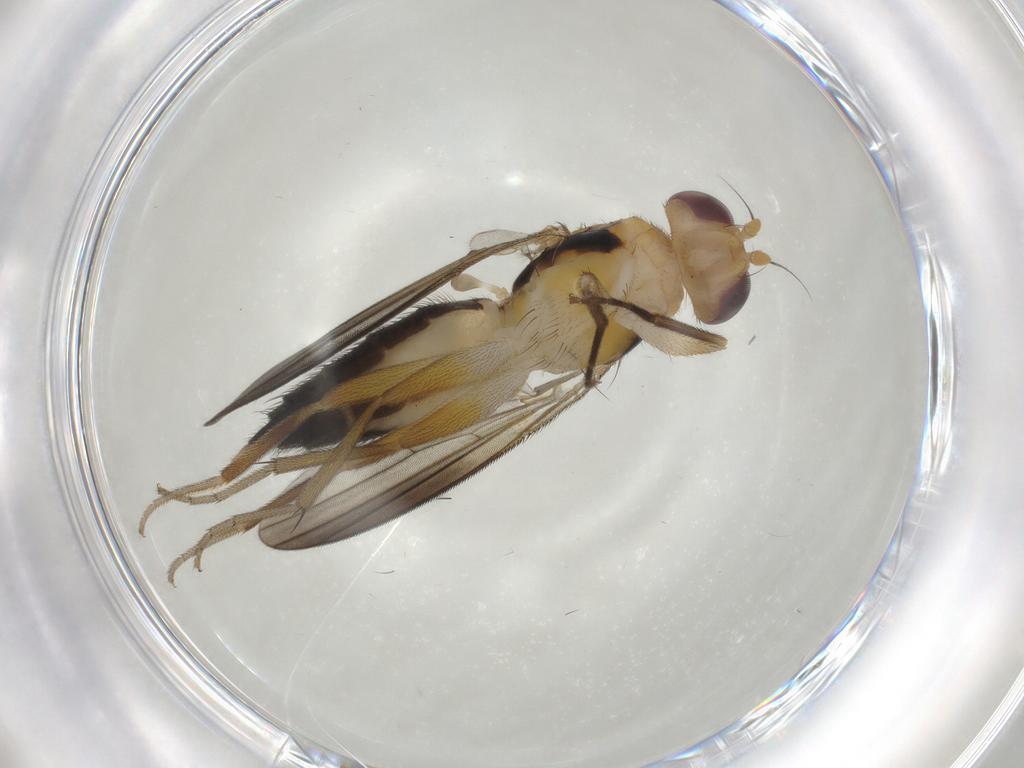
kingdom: Animalia
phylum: Arthropoda
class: Insecta
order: Diptera
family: Clusiidae
